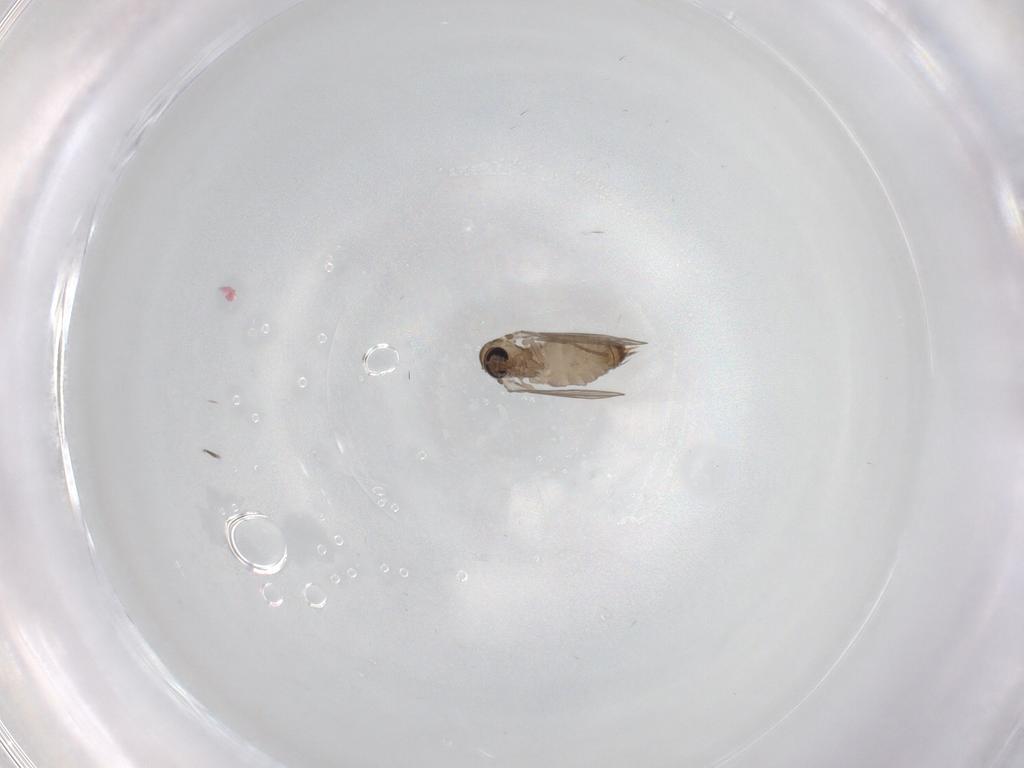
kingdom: Animalia
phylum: Arthropoda
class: Insecta
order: Diptera
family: Psychodidae
